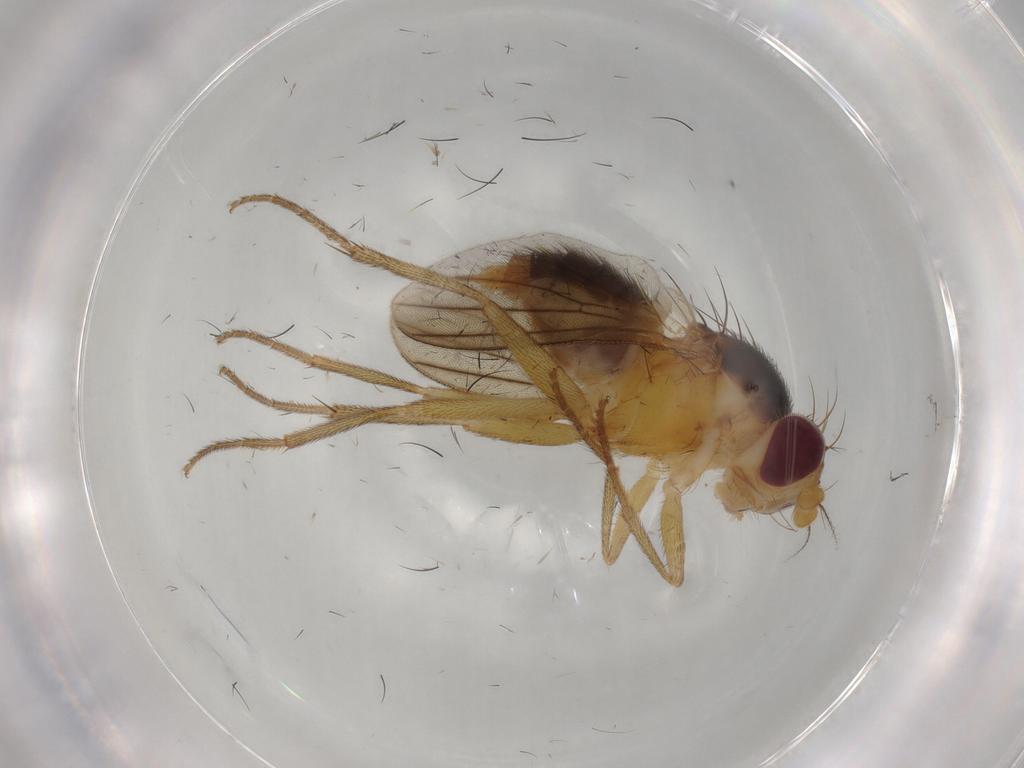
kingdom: Animalia
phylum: Arthropoda
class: Insecta
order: Diptera
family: Clusiidae
